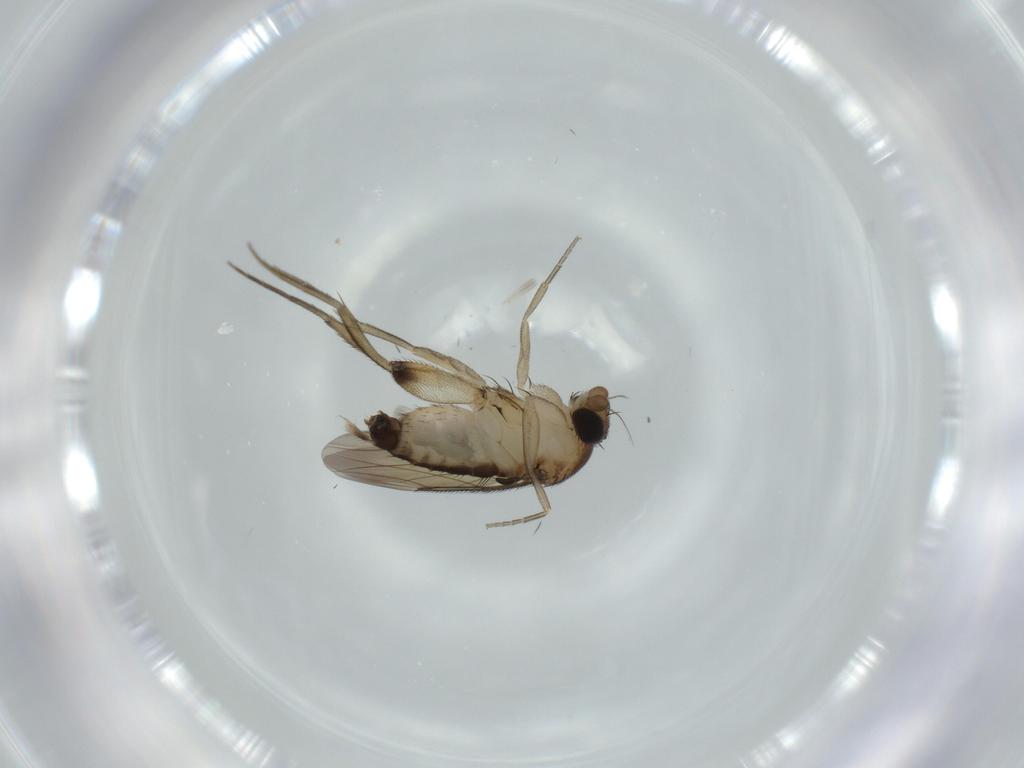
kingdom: Animalia
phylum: Arthropoda
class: Insecta
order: Diptera
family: Phoridae
